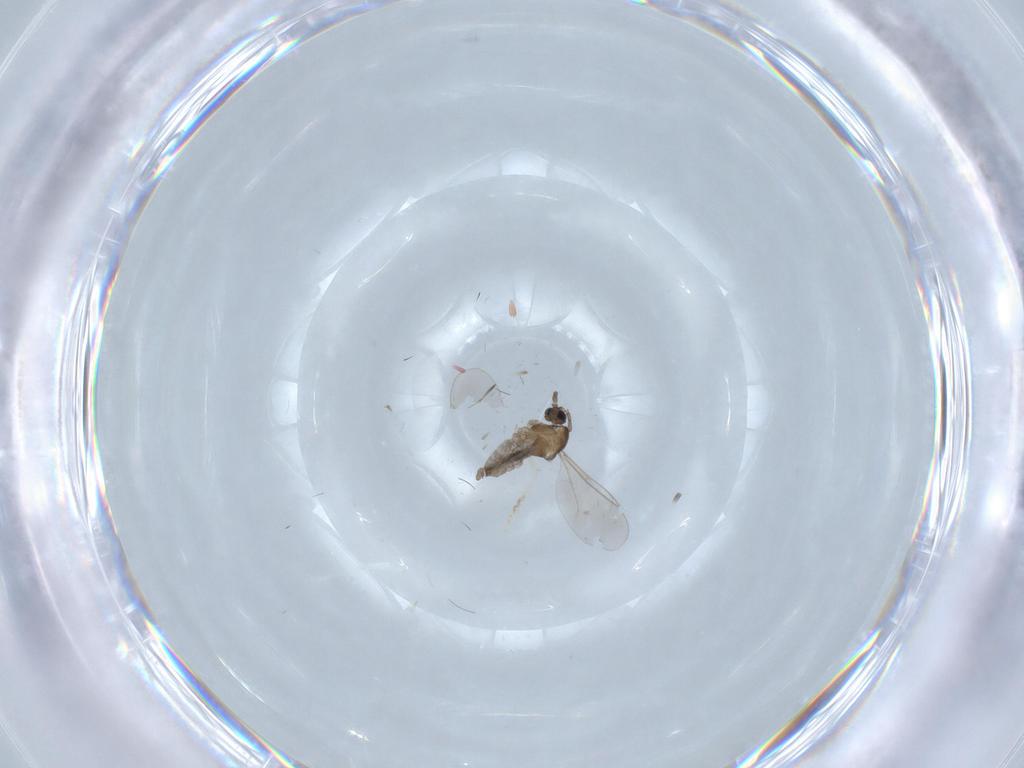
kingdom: Animalia
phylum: Arthropoda
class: Insecta
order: Diptera
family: Cecidomyiidae
